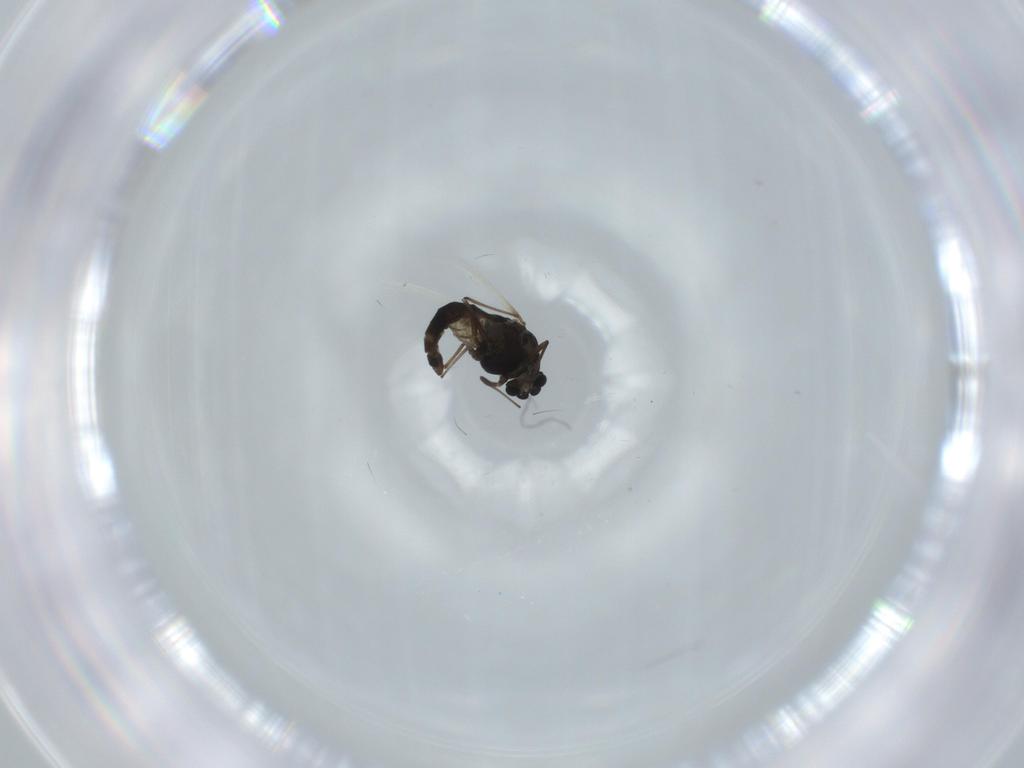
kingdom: Animalia
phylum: Arthropoda
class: Insecta
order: Diptera
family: Chironomidae
